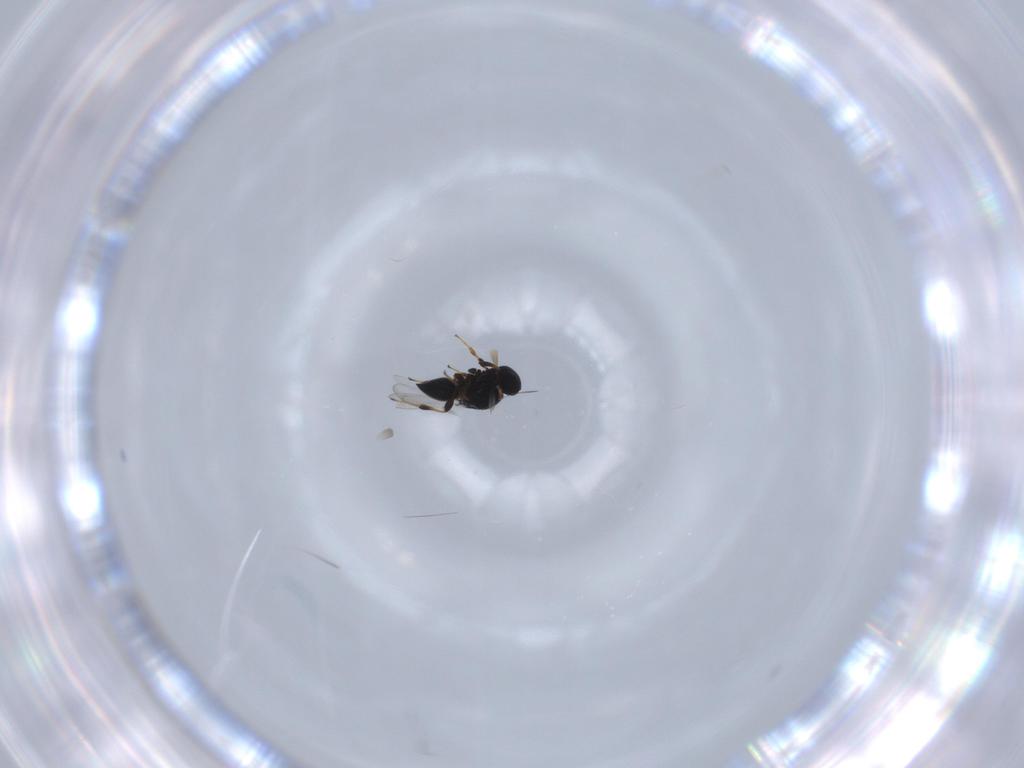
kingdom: Animalia
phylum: Arthropoda
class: Insecta
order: Hymenoptera
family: Platygastridae
